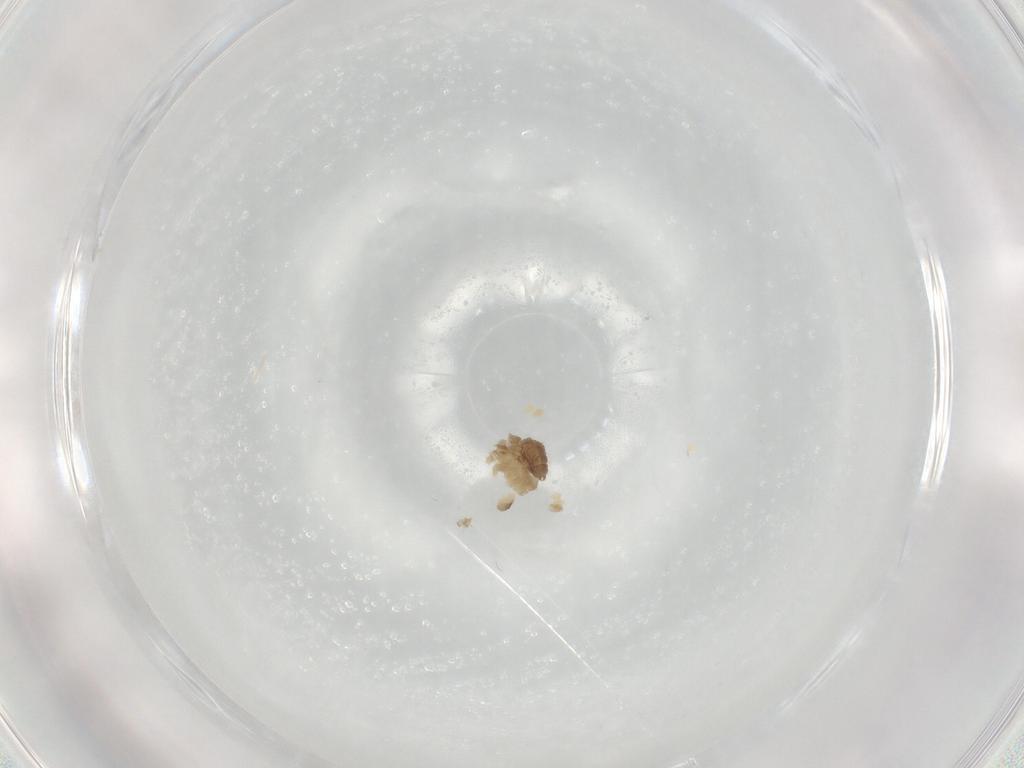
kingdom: Animalia
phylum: Arthropoda
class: Insecta
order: Diptera
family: Chironomidae
